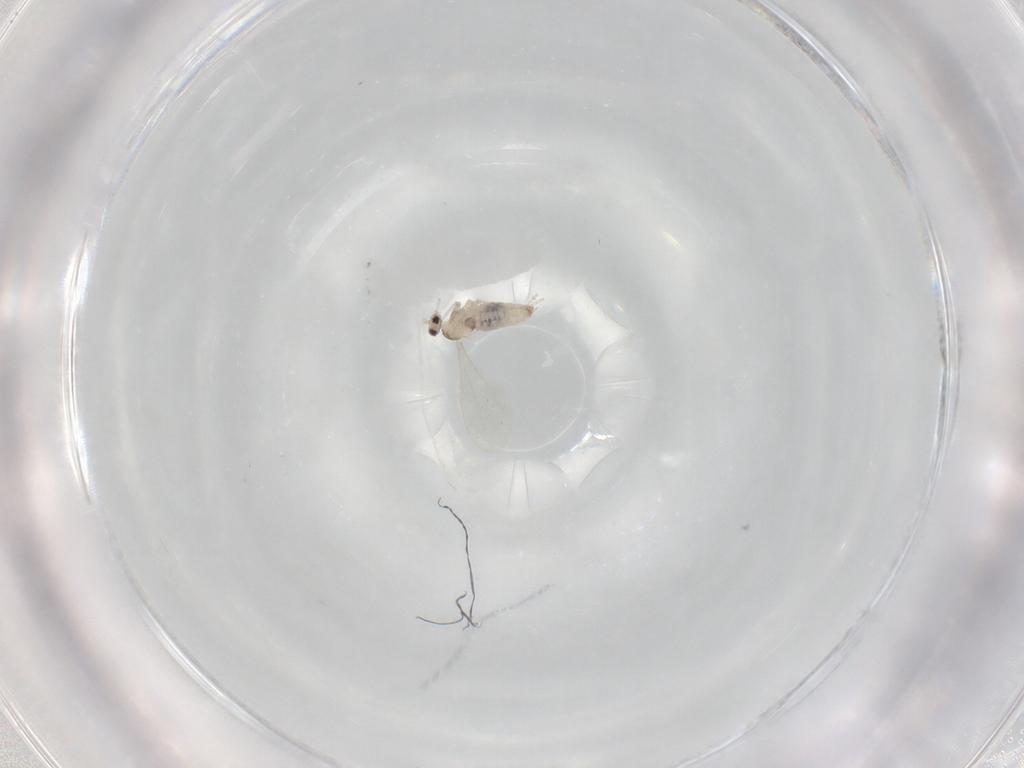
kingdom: Animalia
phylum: Arthropoda
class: Insecta
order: Diptera
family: Cecidomyiidae
